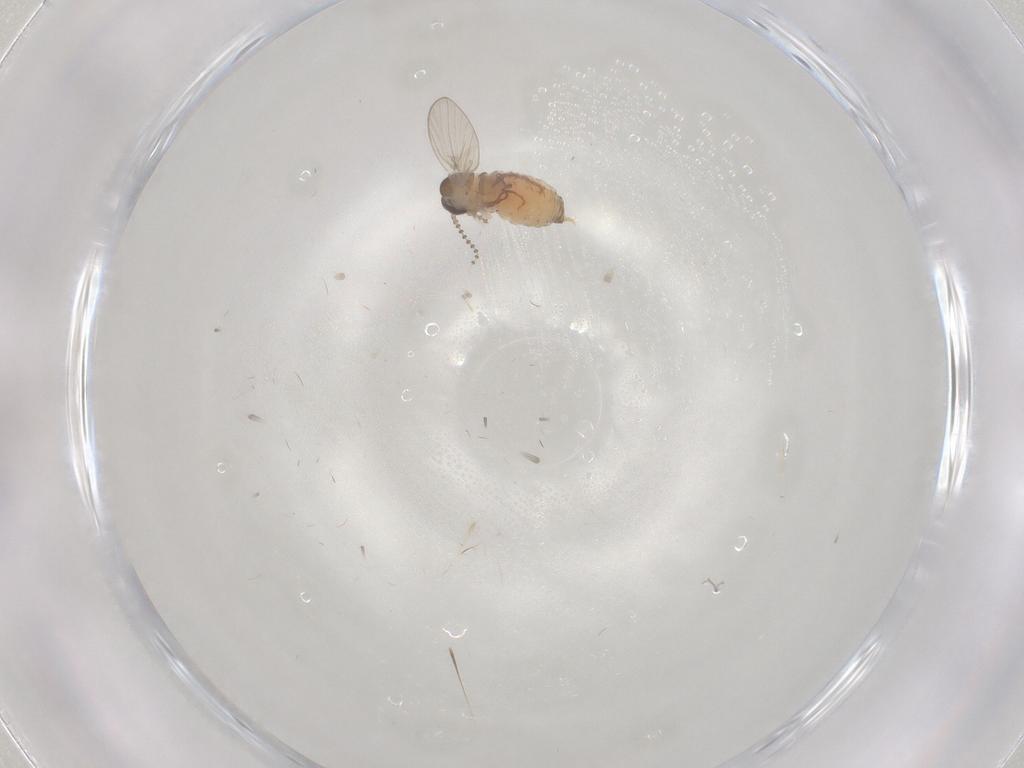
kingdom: Animalia
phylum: Arthropoda
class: Insecta
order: Diptera
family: Psychodidae
